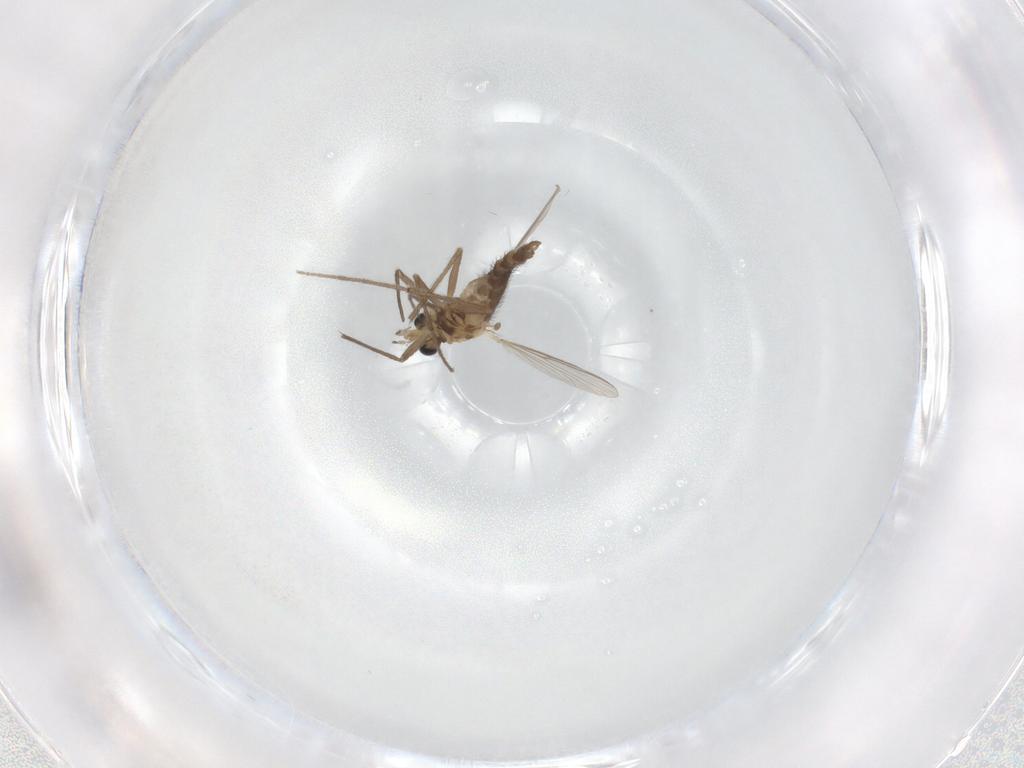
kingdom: Animalia
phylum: Arthropoda
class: Insecta
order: Diptera
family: Chironomidae
